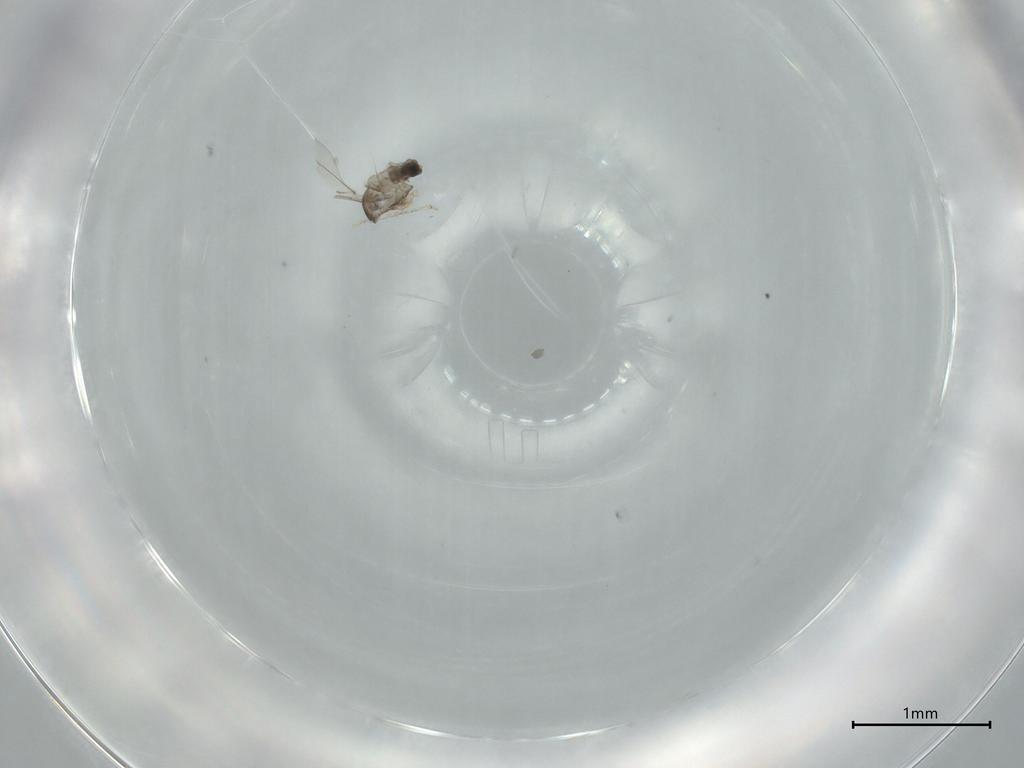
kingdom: Animalia
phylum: Arthropoda
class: Insecta
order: Diptera
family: Cecidomyiidae
